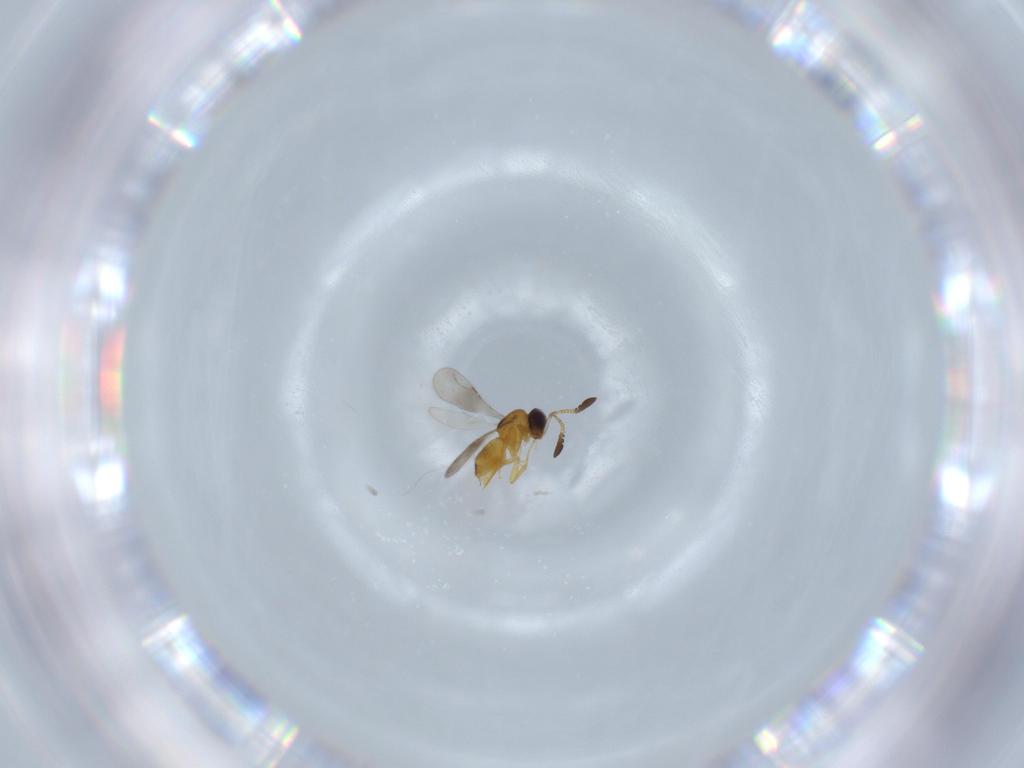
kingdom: Animalia
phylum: Arthropoda
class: Insecta
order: Hymenoptera
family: Ceraphronidae
